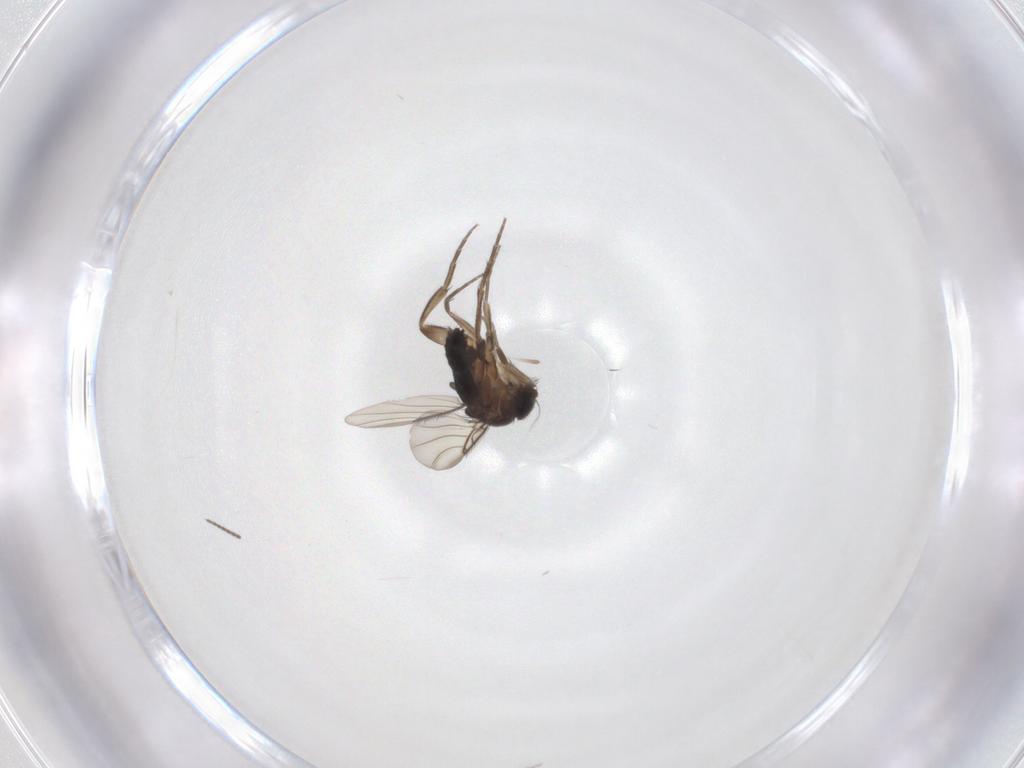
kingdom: Animalia
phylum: Arthropoda
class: Insecta
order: Diptera
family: Phoridae
